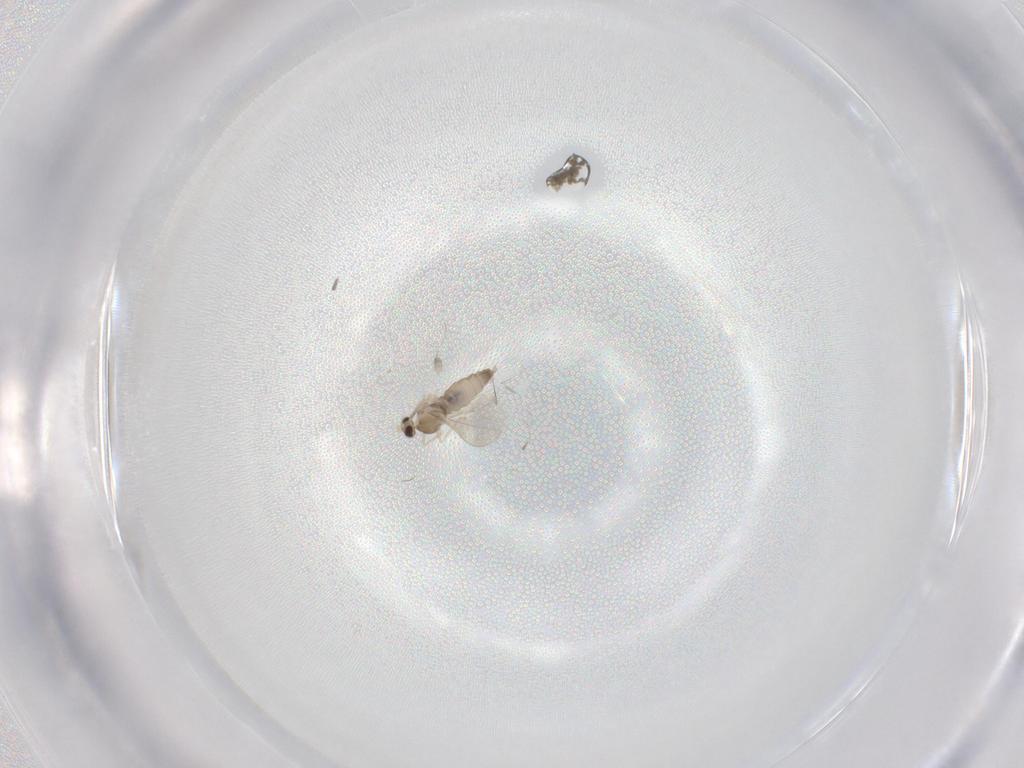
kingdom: Animalia
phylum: Arthropoda
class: Insecta
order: Diptera
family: Cecidomyiidae
